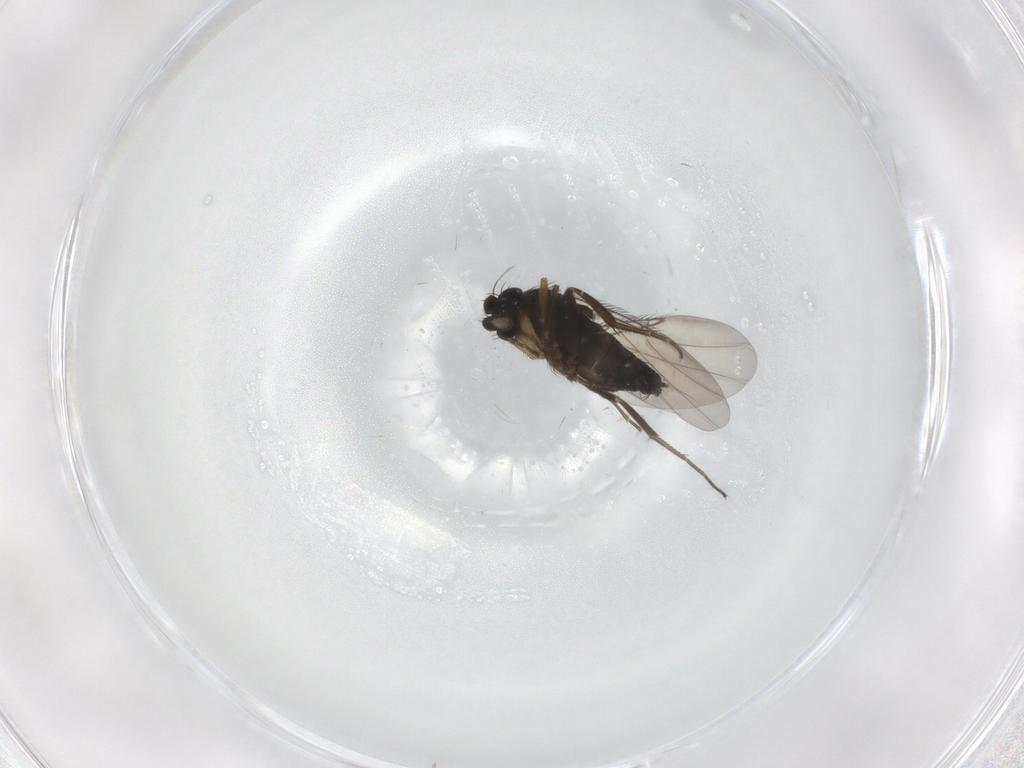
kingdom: Animalia
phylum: Arthropoda
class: Insecta
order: Diptera
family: Phoridae
